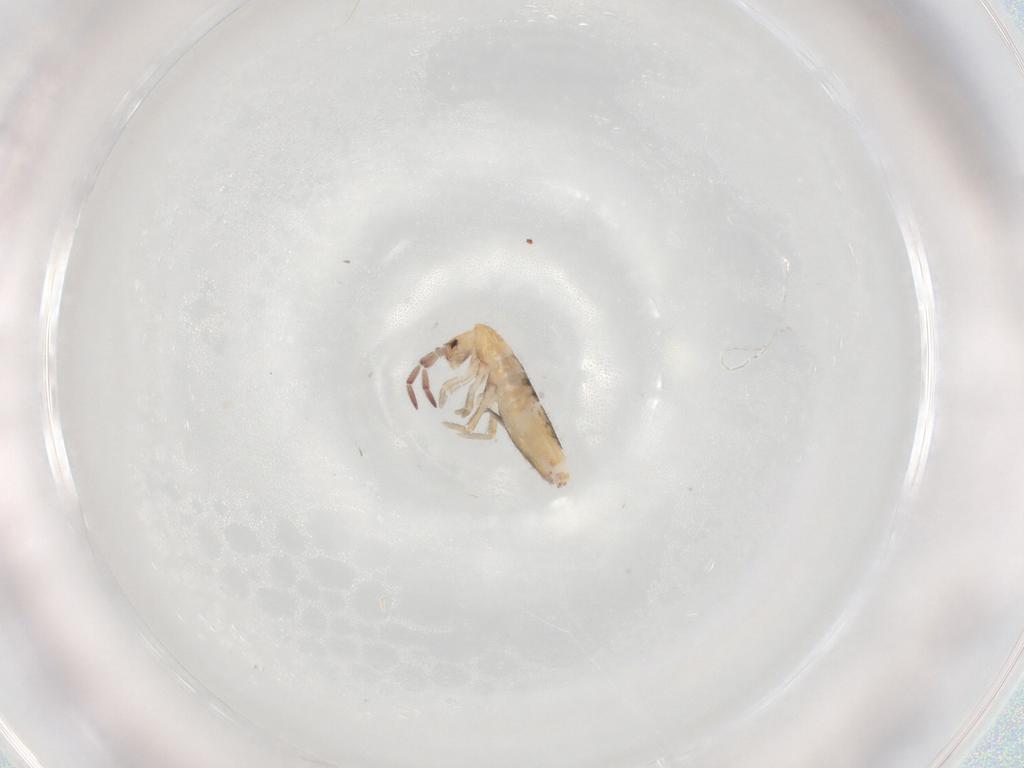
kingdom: Animalia
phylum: Arthropoda
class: Collembola
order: Entomobryomorpha
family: Entomobryidae
